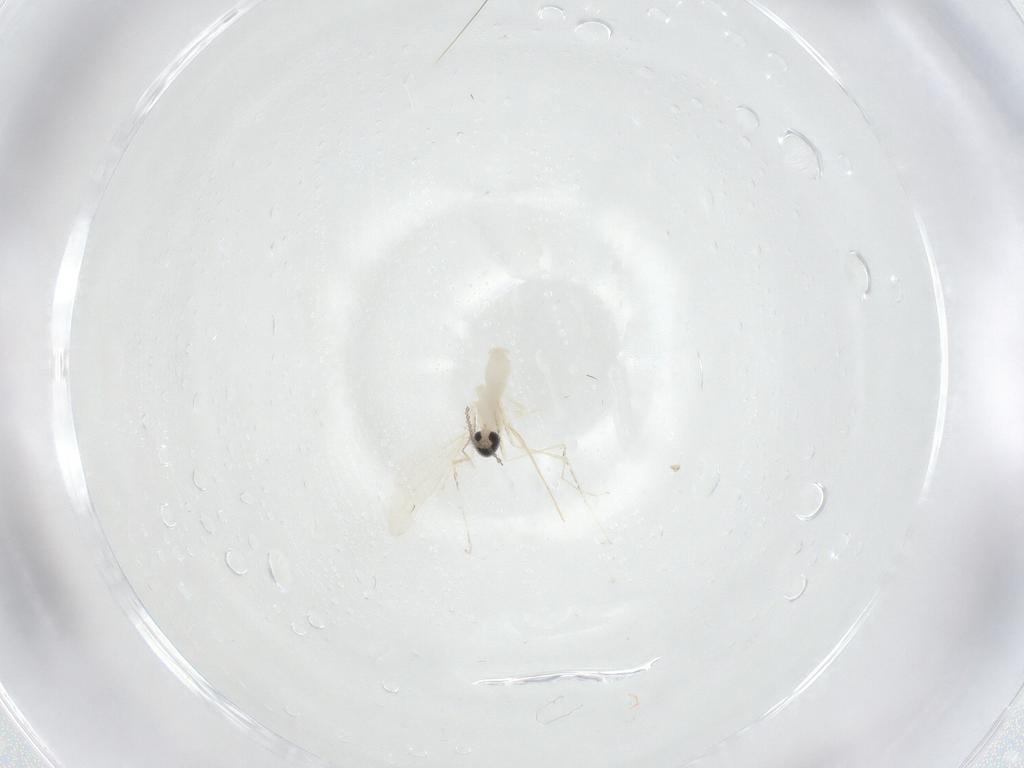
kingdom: Animalia
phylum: Arthropoda
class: Insecta
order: Diptera
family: Cecidomyiidae
